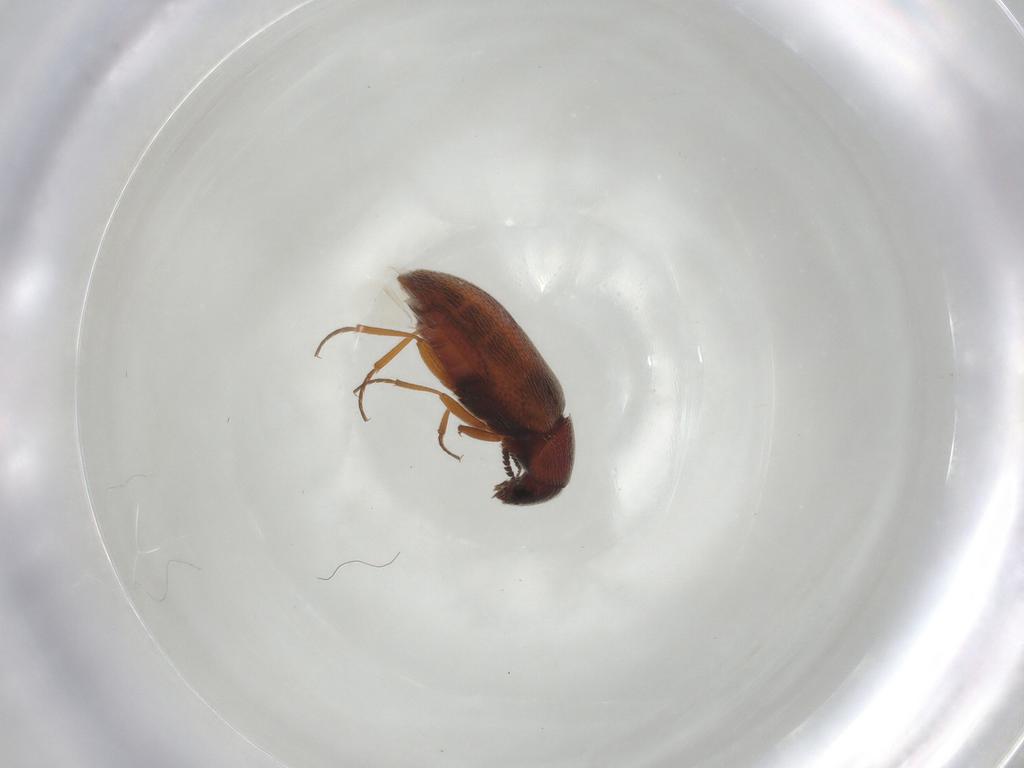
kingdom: Animalia
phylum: Arthropoda
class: Insecta
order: Coleoptera
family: Rhadalidae
